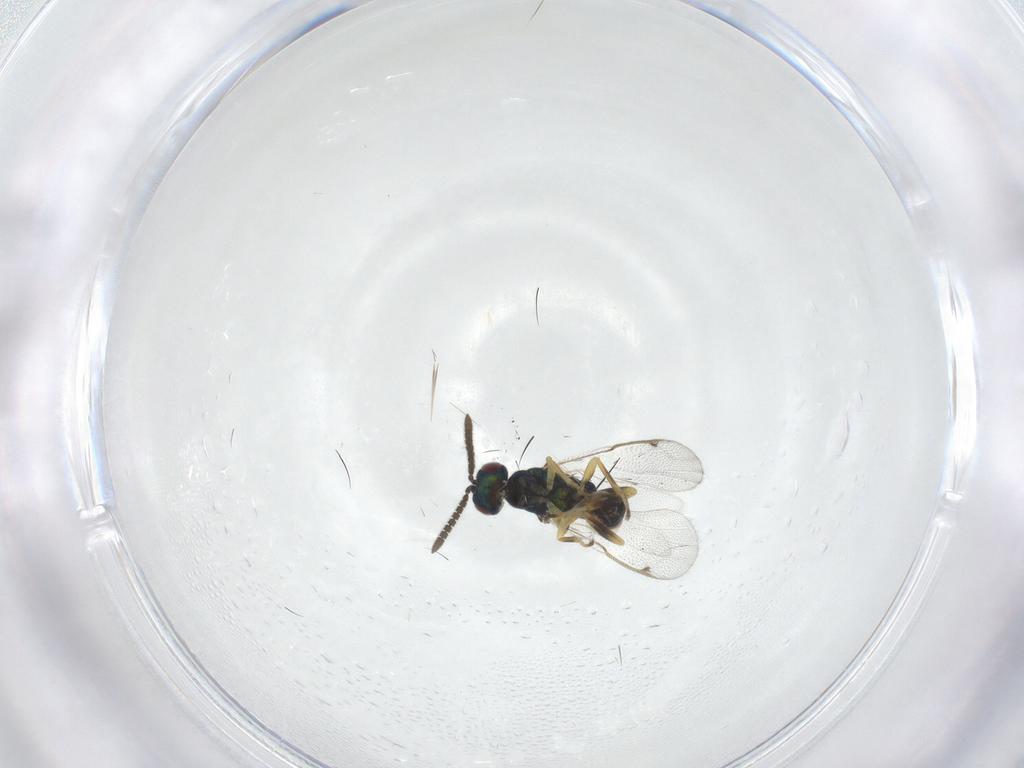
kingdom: Animalia
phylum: Arthropoda
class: Insecta
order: Hymenoptera
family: Torymidae
